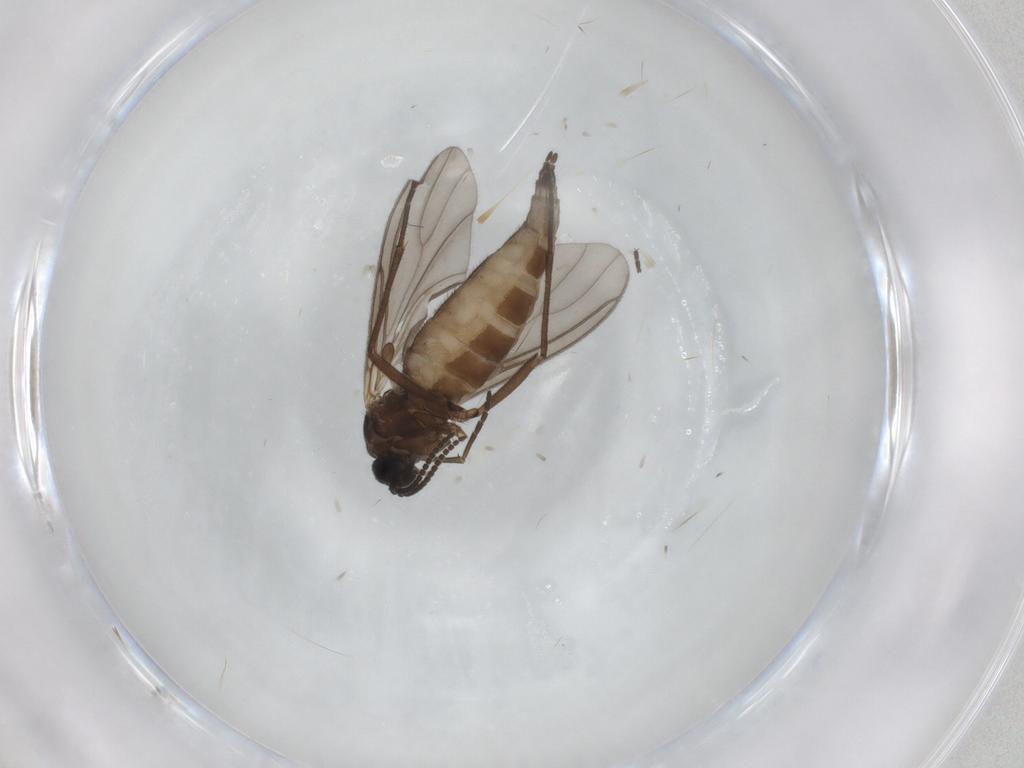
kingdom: Animalia
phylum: Arthropoda
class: Insecta
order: Diptera
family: Sciaridae
